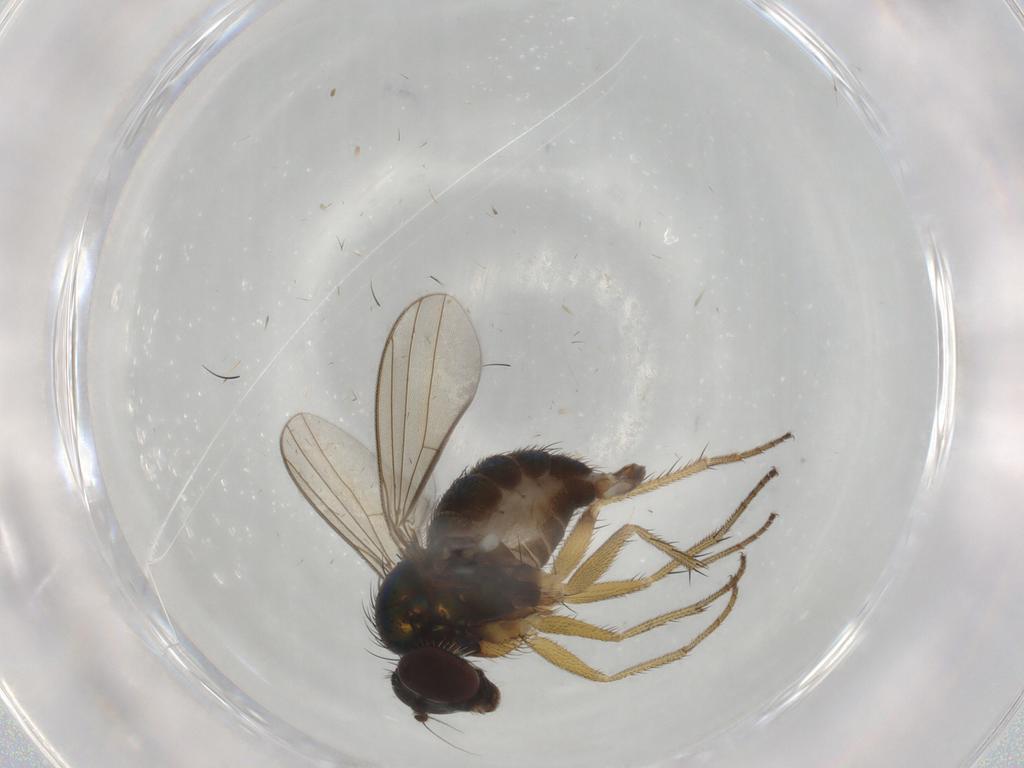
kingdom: Animalia
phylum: Arthropoda
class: Insecta
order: Diptera
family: Dolichopodidae
